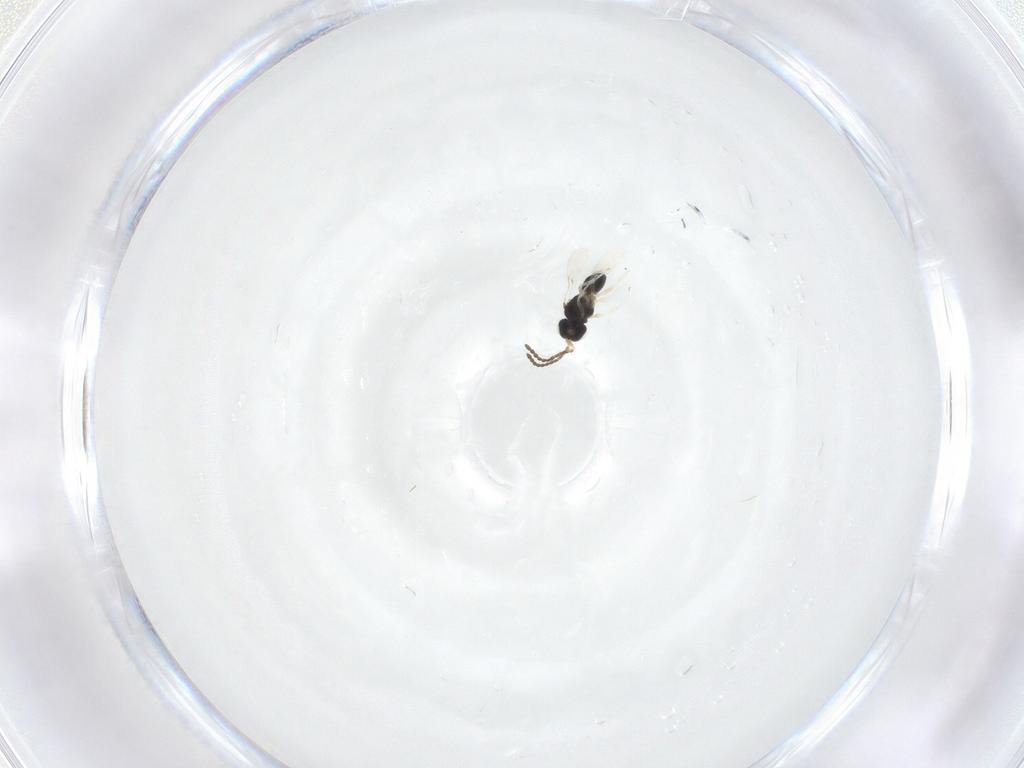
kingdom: Animalia
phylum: Arthropoda
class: Insecta
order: Hymenoptera
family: Scelionidae
